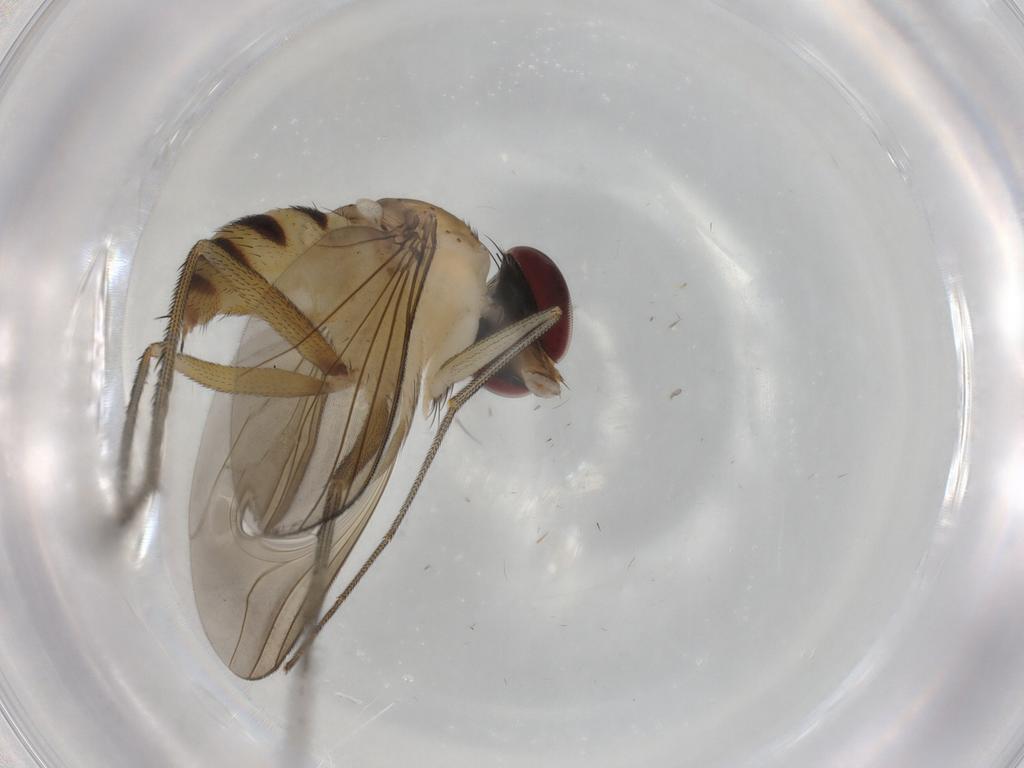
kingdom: Animalia
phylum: Arthropoda
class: Insecta
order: Diptera
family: Dolichopodidae
